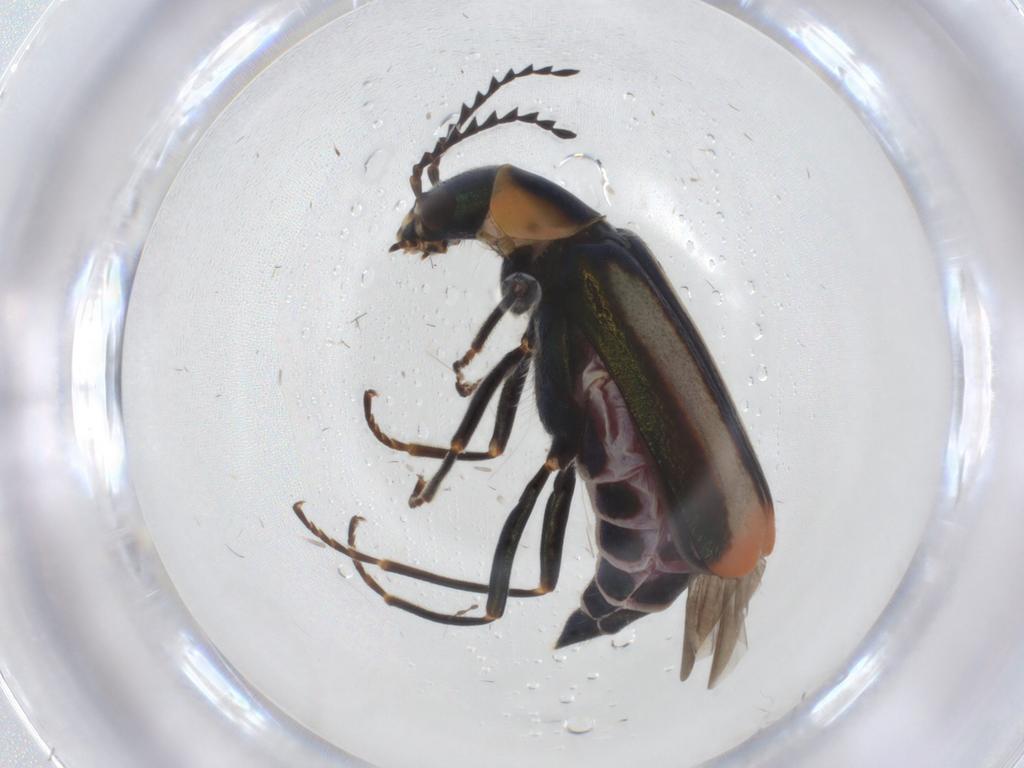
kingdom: Animalia
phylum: Arthropoda
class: Insecta
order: Coleoptera
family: Melyridae
